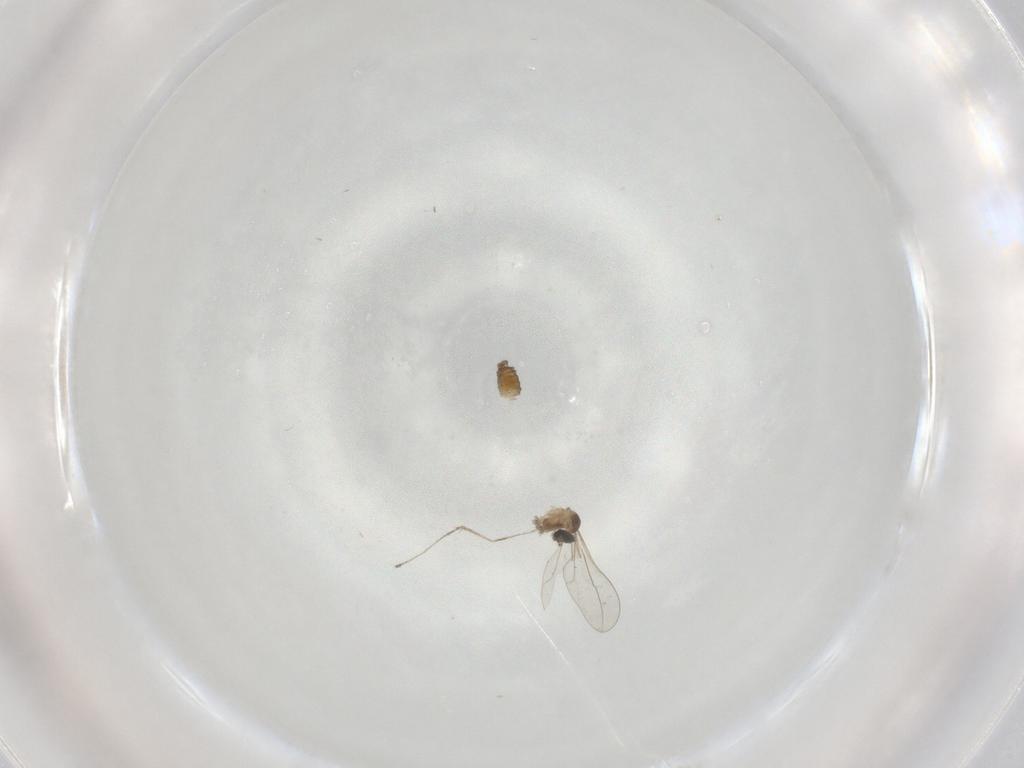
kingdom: Animalia
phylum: Arthropoda
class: Insecta
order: Diptera
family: Cecidomyiidae
